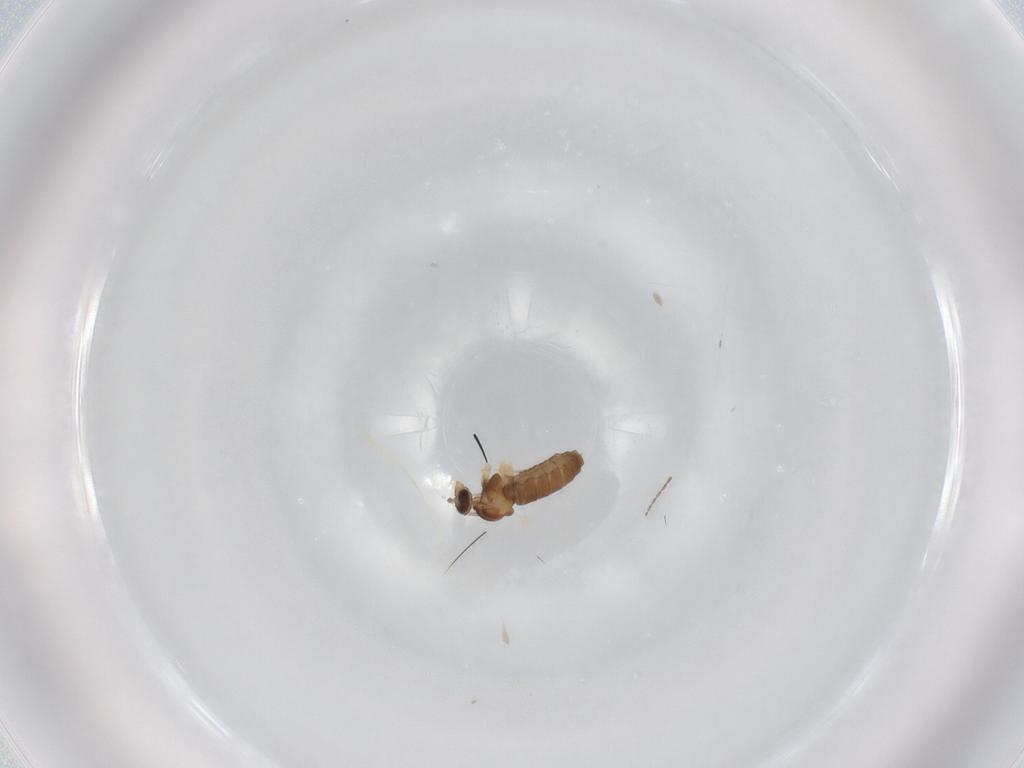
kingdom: Animalia
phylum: Arthropoda
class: Insecta
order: Diptera
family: Cecidomyiidae
